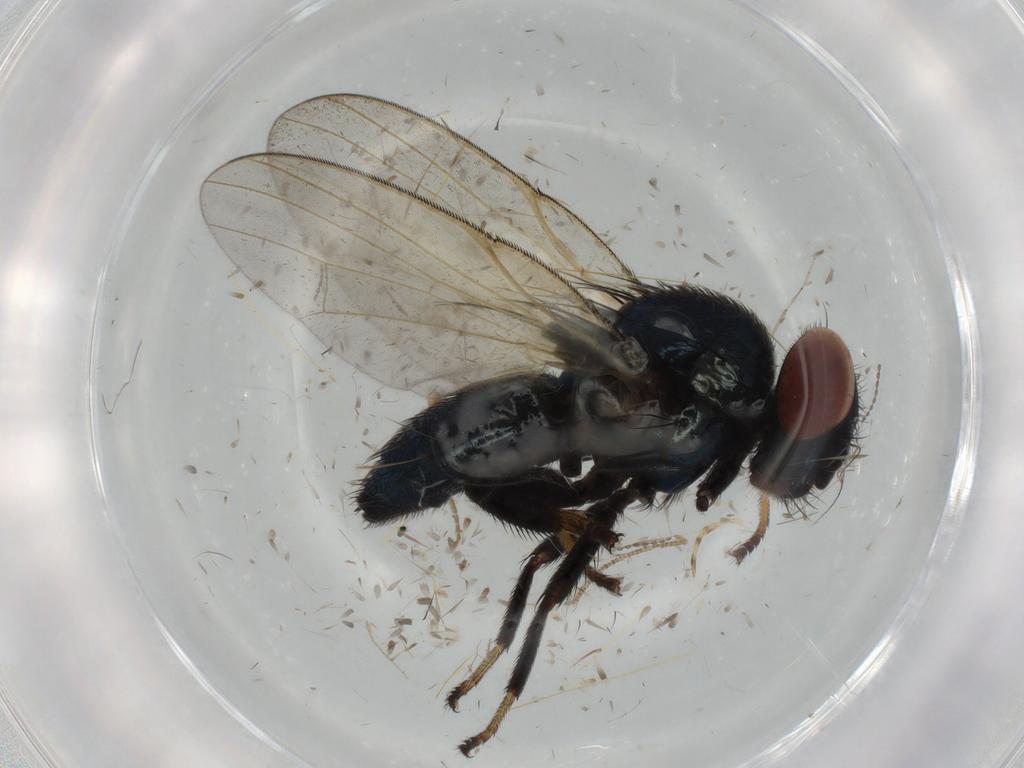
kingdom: Animalia
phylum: Arthropoda
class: Insecta
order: Diptera
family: Lonchaeidae
